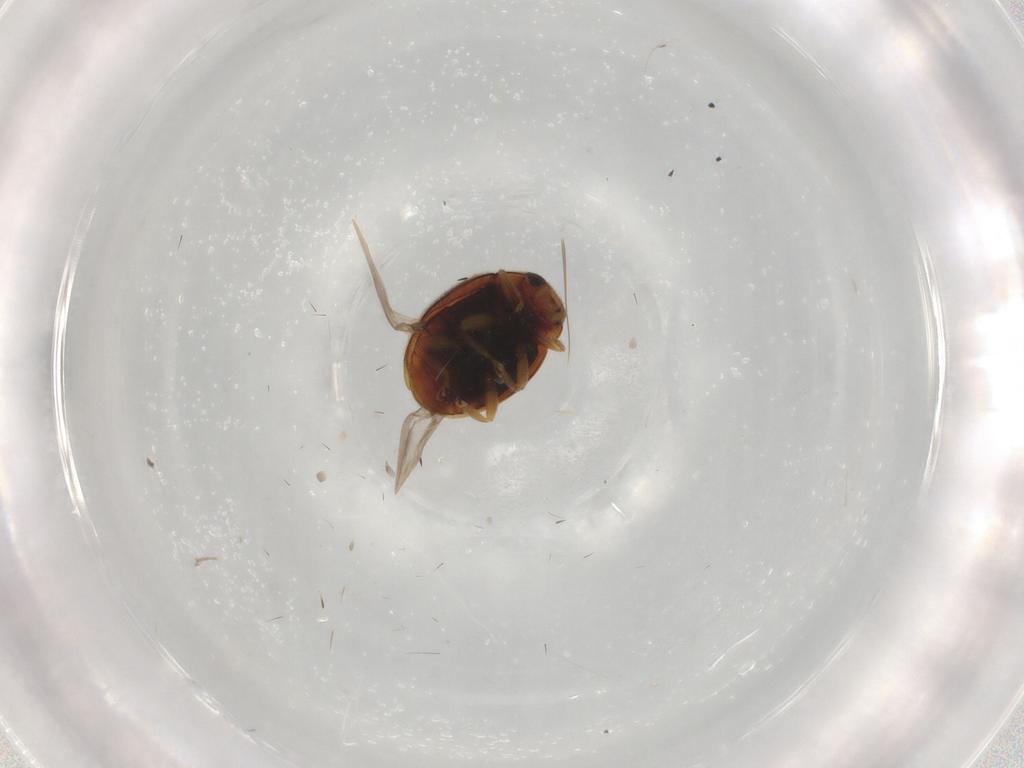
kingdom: Animalia
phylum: Arthropoda
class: Insecta
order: Coleoptera
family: Coccinellidae
